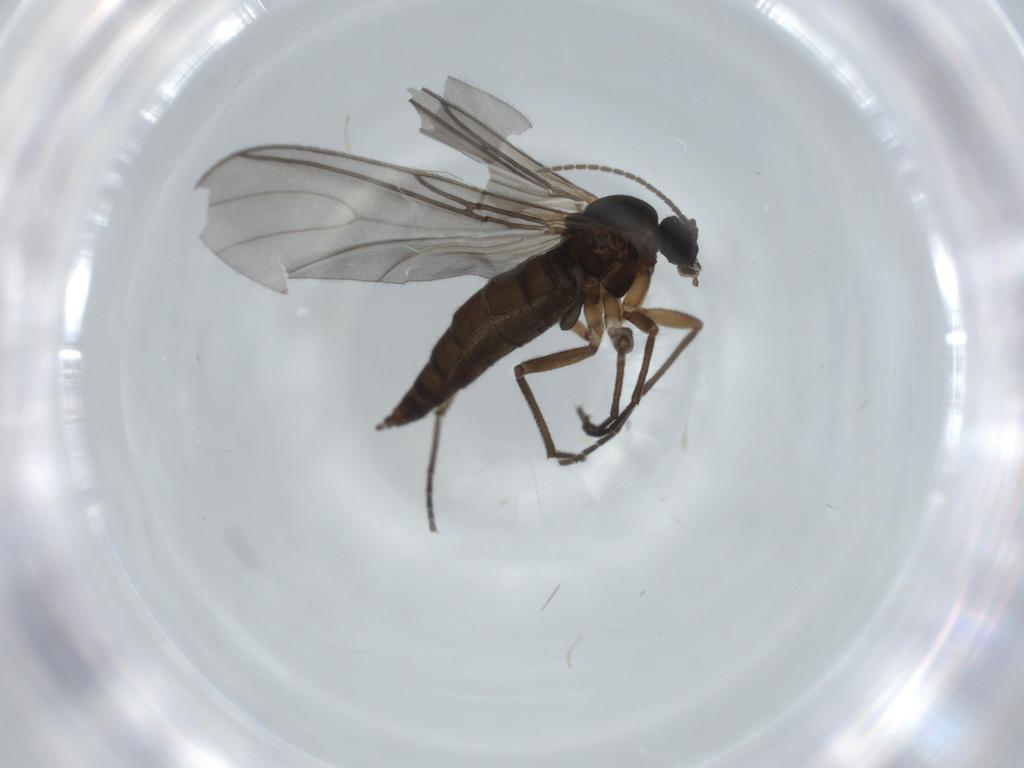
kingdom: Animalia
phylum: Arthropoda
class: Insecta
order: Diptera
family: Sciaridae
